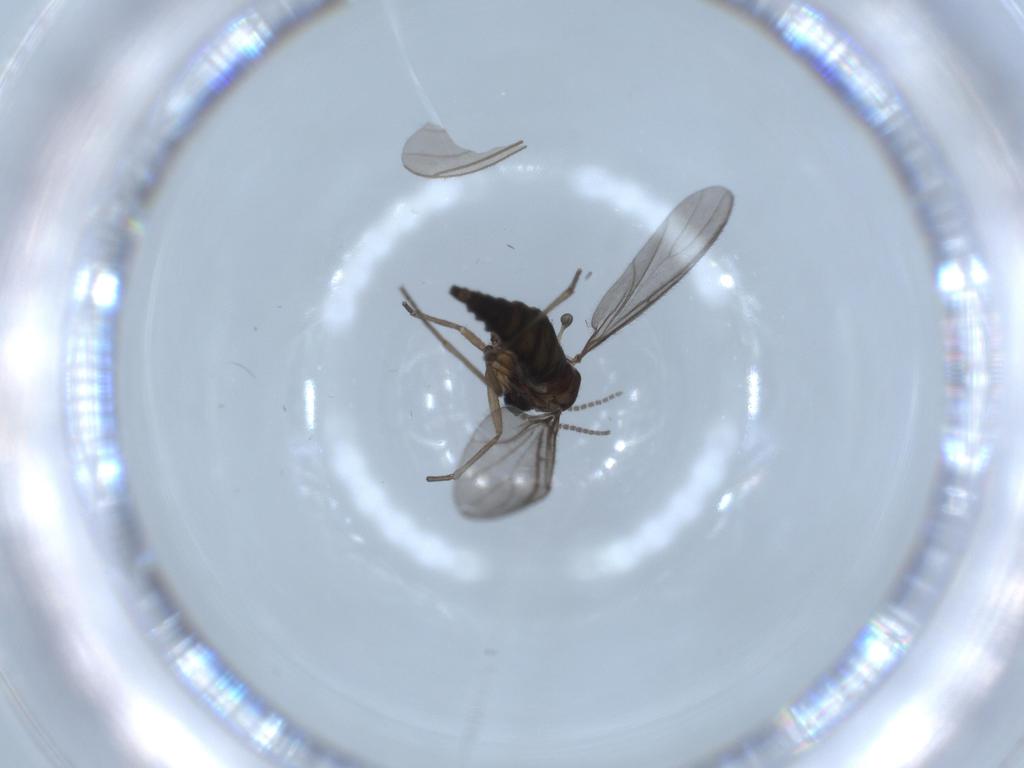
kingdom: Animalia
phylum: Arthropoda
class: Insecta
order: Diptera
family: Sciaridae
